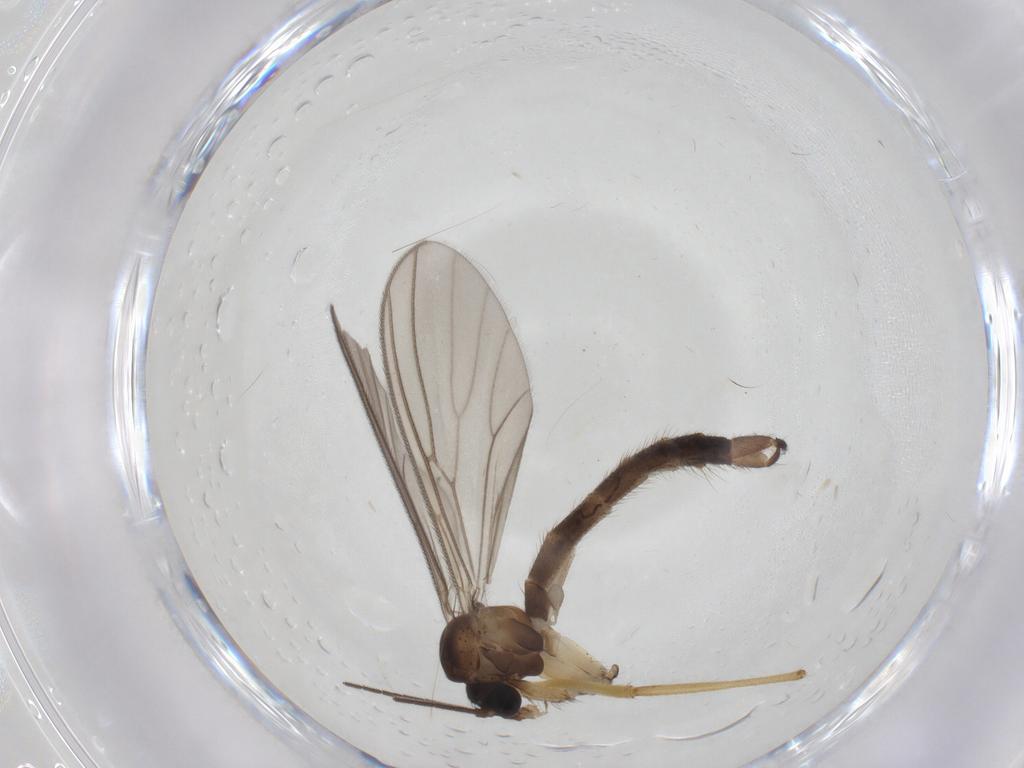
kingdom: Animalia
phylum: Arthropoda
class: Insecta
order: Diptera
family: Chironomidae
